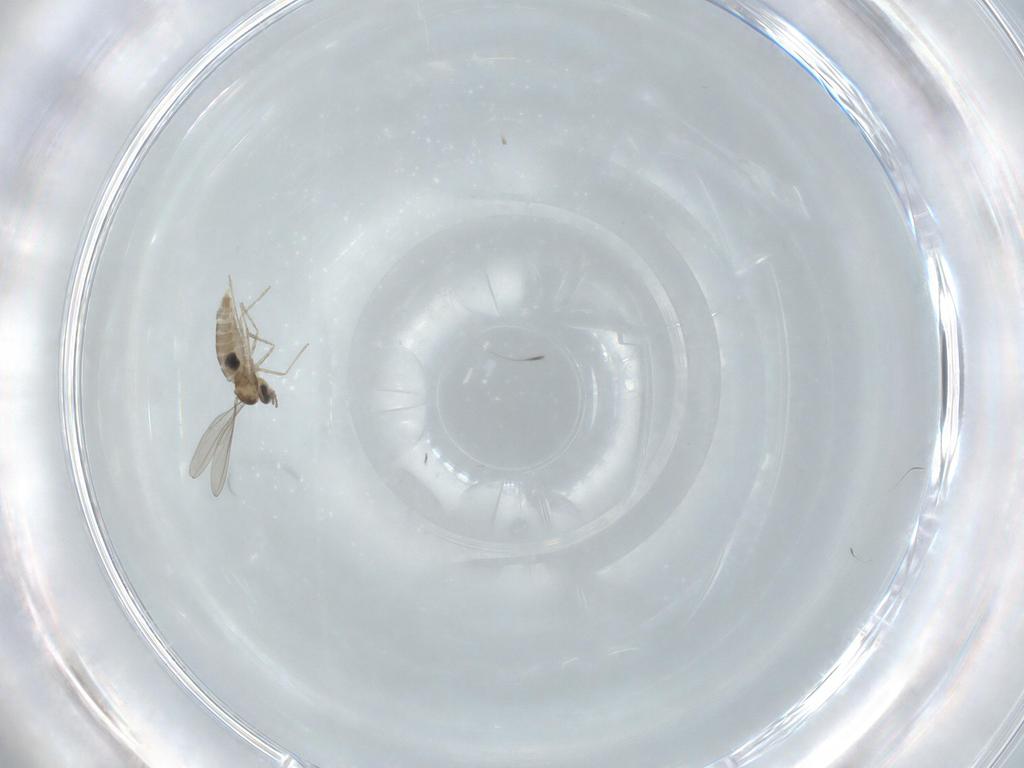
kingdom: Animalia
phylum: Arthropoda
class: Insecta
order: Diptera
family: Cecidomyiidae
